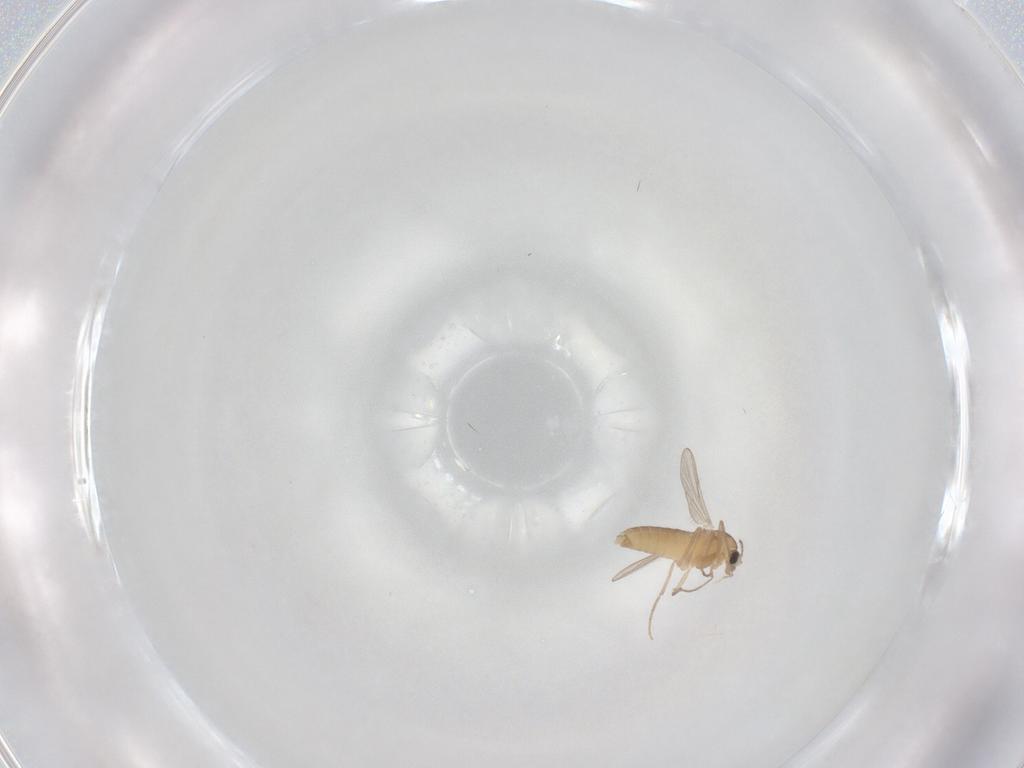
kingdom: Animalia
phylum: Arthropoda
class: Insecta
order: Diptera
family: Chironomidae
